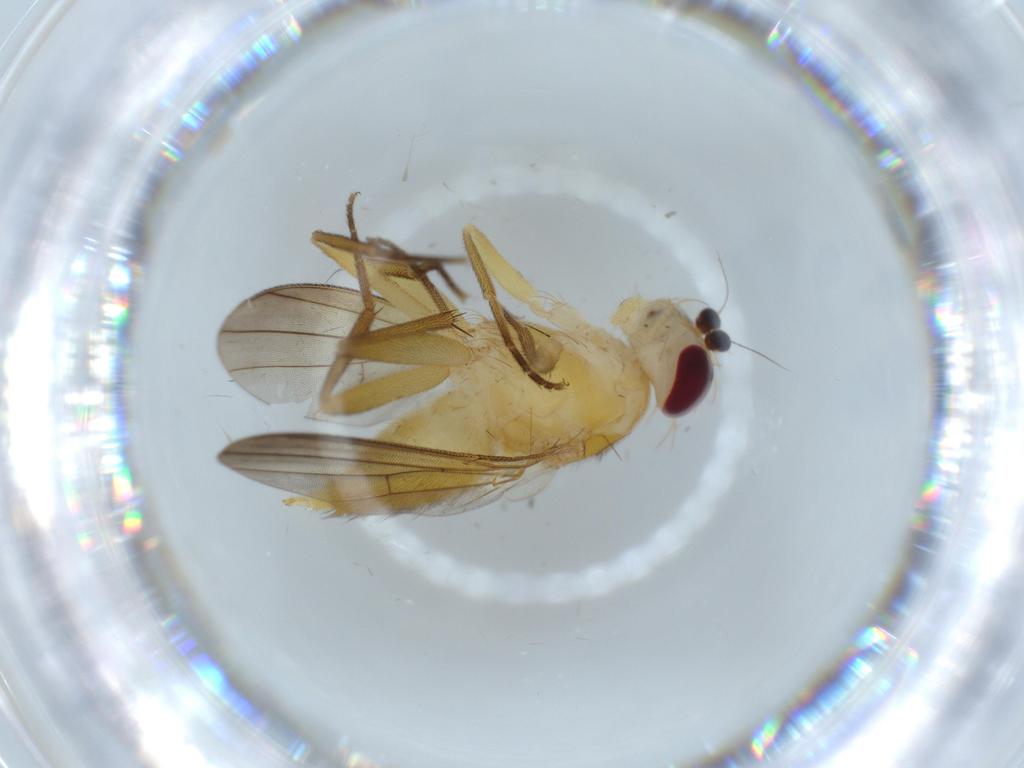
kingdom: Animalia
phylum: Arthropoda
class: Insecta
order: Diptera
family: Clusiidae
